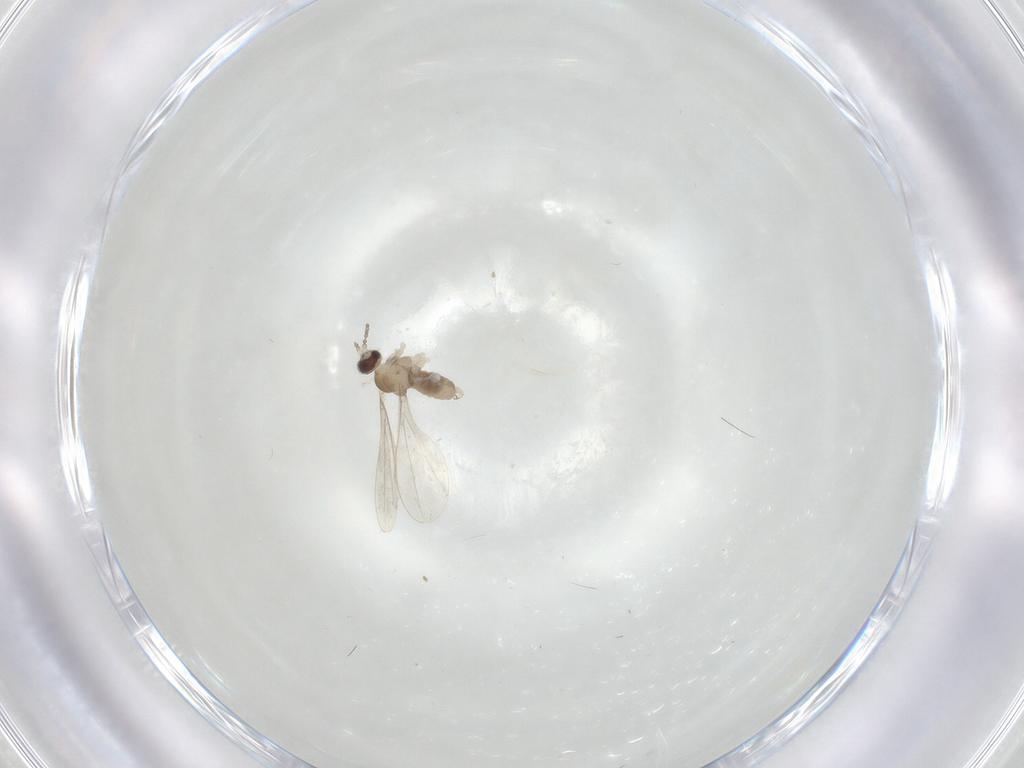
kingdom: Animalia
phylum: Arthropoda
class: Insecta
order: Diptera
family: Cecidomyiidae
